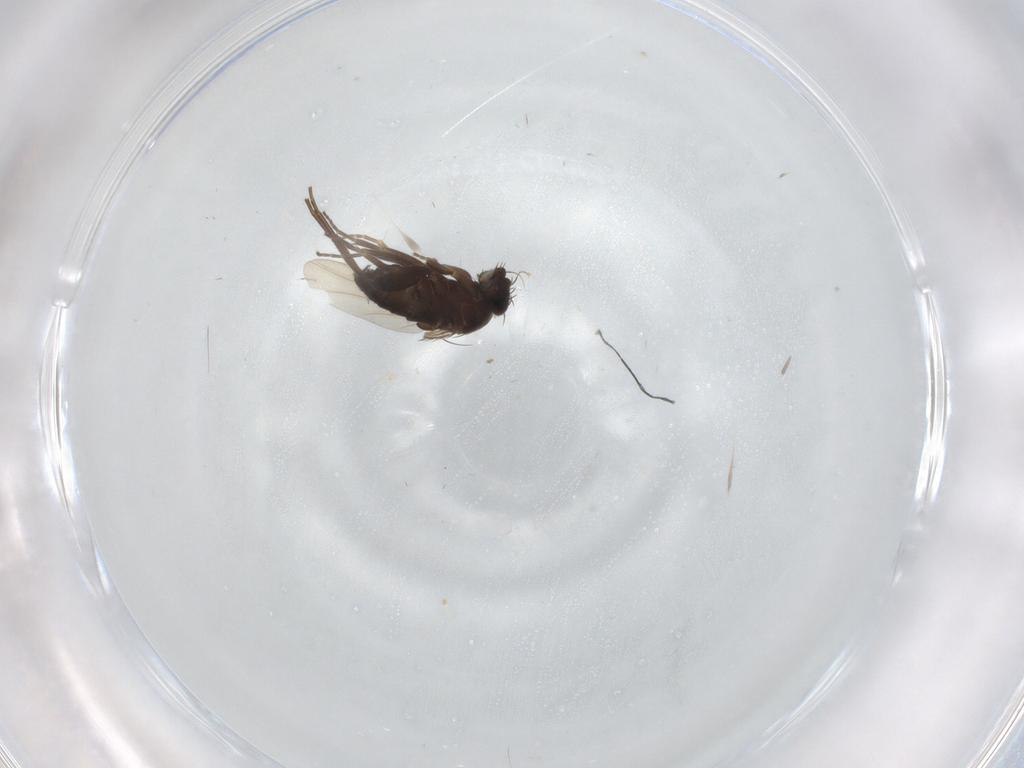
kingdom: Animalia
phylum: Arthropoda
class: Insecta
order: Diptera
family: Phoridae
